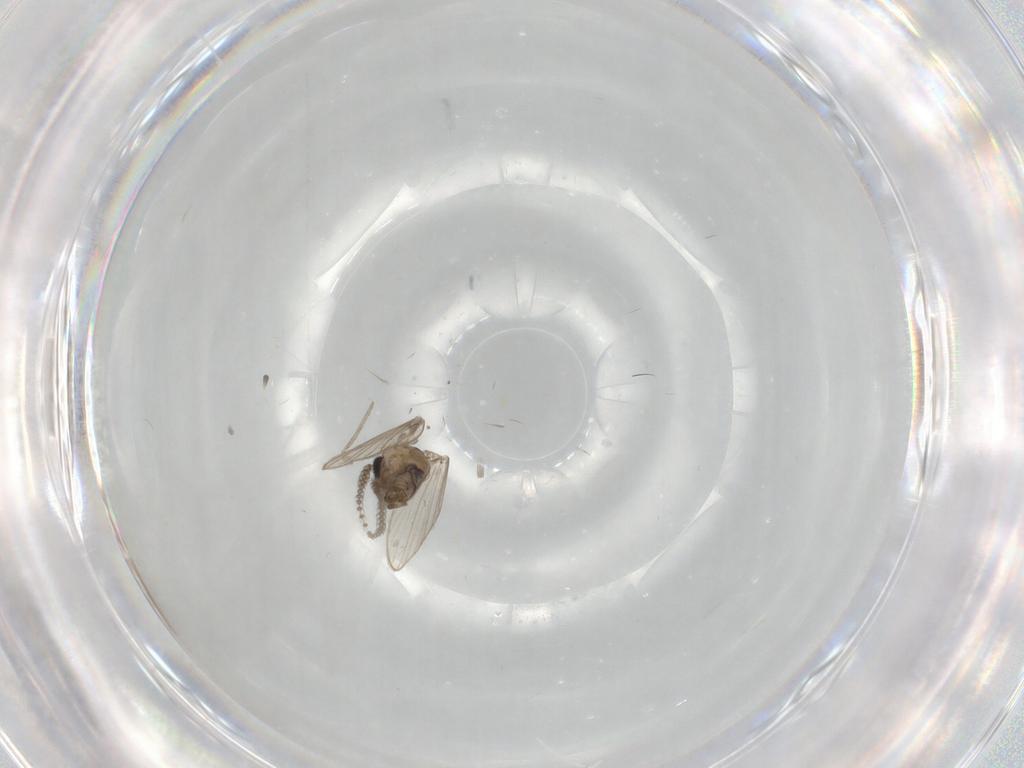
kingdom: Animalia
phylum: Arthropoda
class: Insecta
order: Diptera
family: Psychodidae
